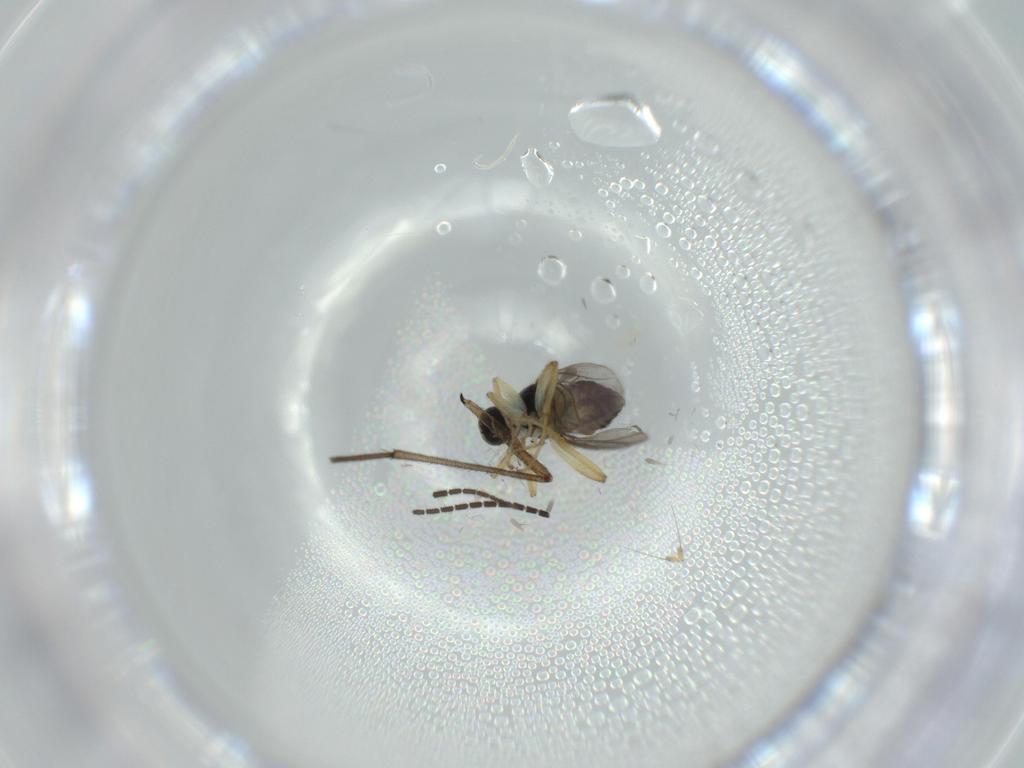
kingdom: Animalia
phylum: Arthropoda
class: Insecta
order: Diptera
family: Hybotidae
